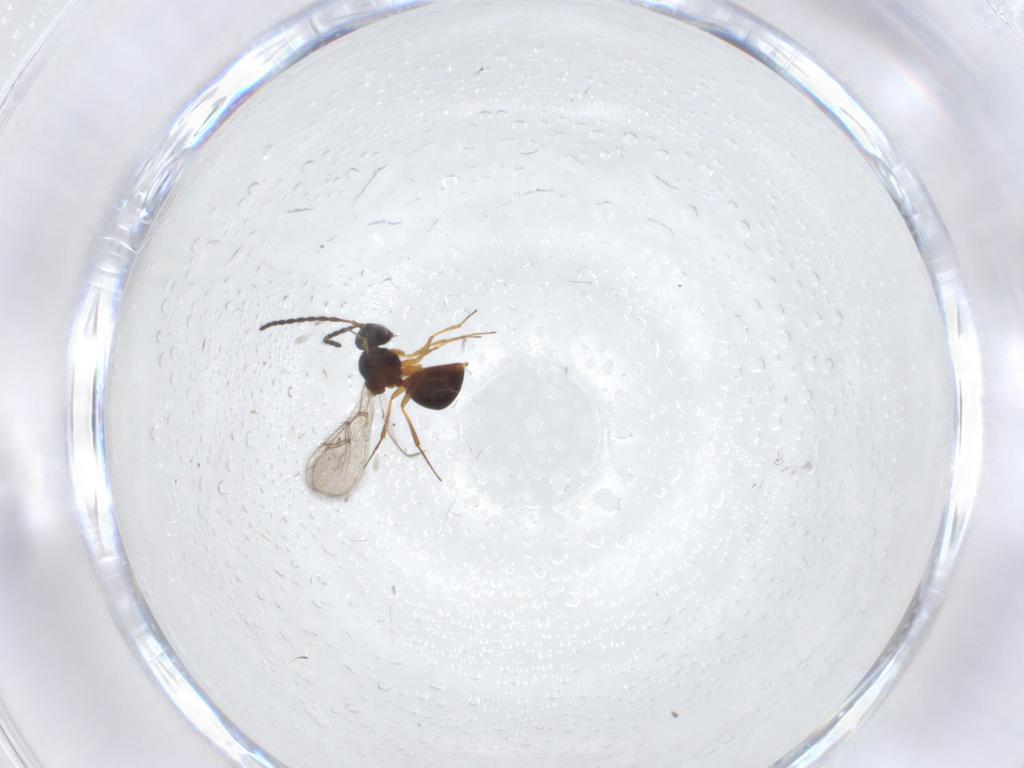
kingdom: Animalia
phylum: Arthropoda
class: Insecta
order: Hymenoptera
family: Figitidae
